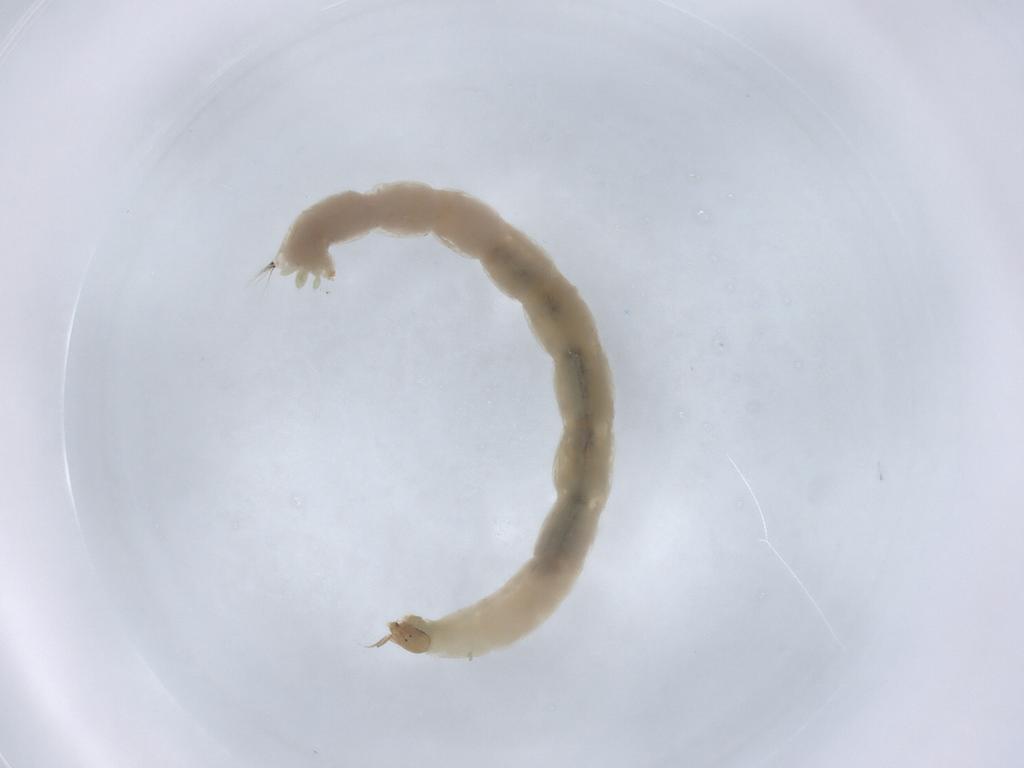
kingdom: Animalia
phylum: Arthropoda
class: Insecta
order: Diptera
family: Chironomidae
